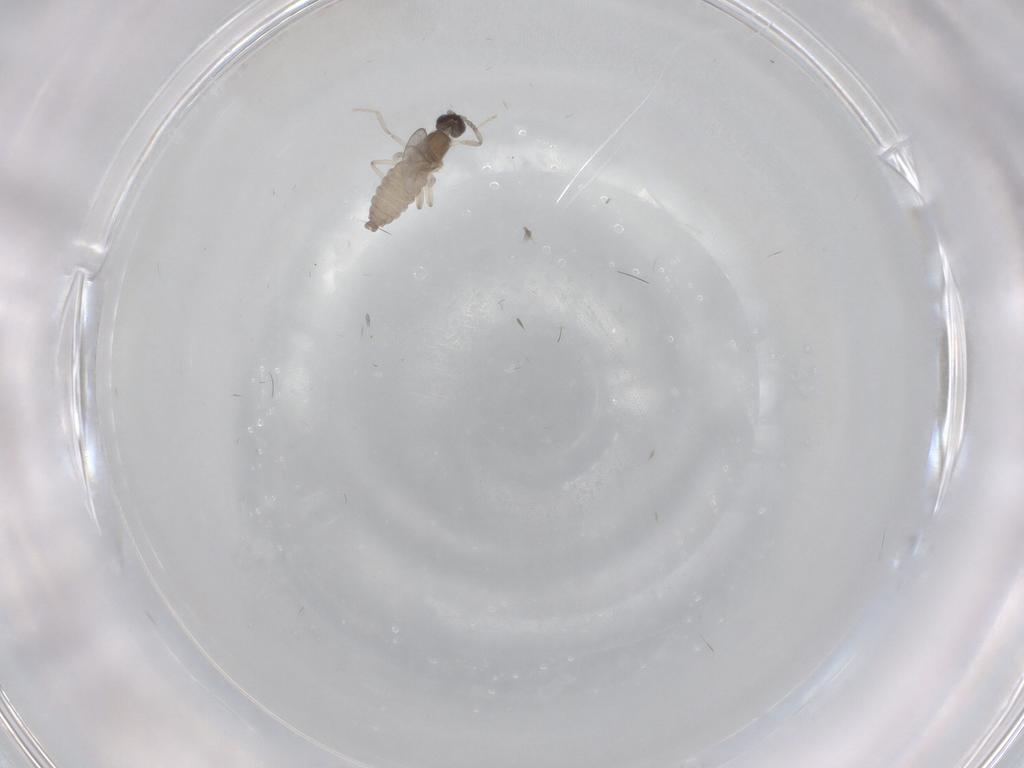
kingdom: Animalia
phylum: Arthropoda
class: Insecta
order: Diptera
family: Cecidomyiidae
